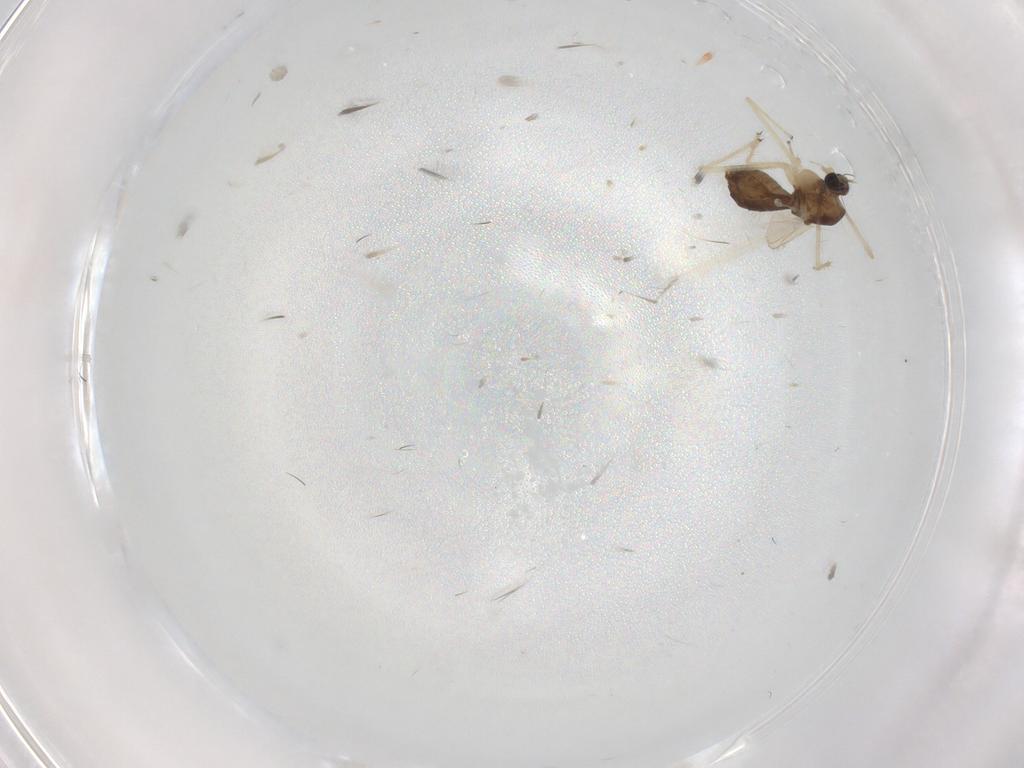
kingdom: Animalia
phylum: Arthropoda
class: Insecta
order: Diptera
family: Chironomidae
